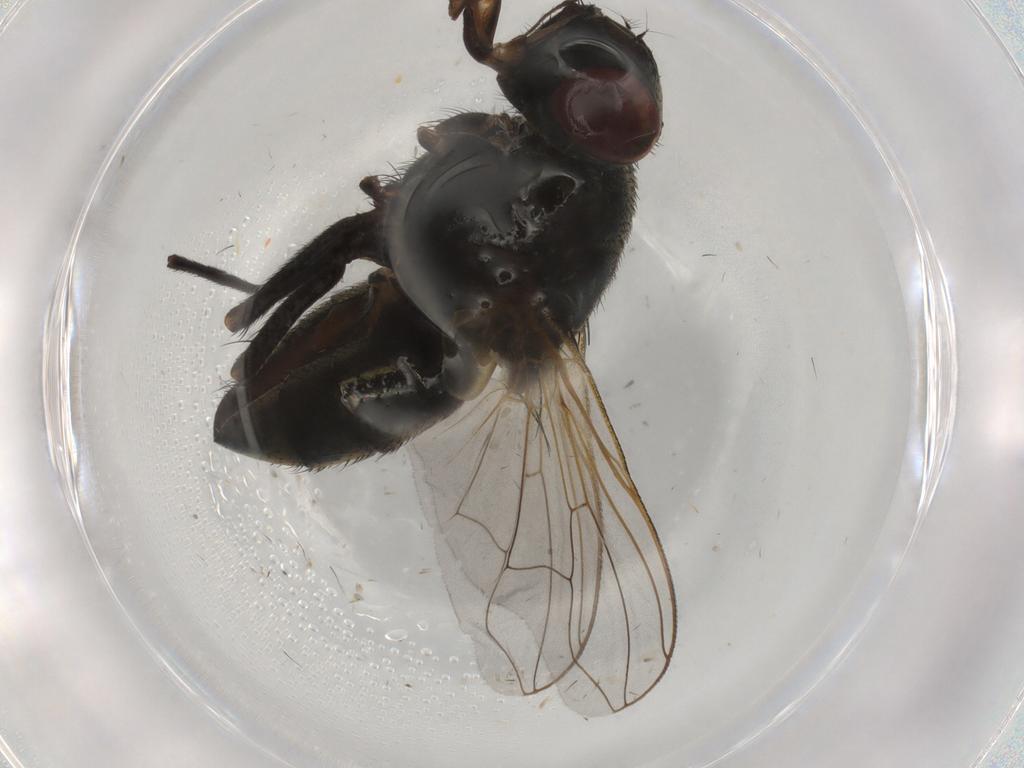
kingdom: Animalia
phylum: Arthropoda
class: Insecta
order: Diptera
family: Muscidae
